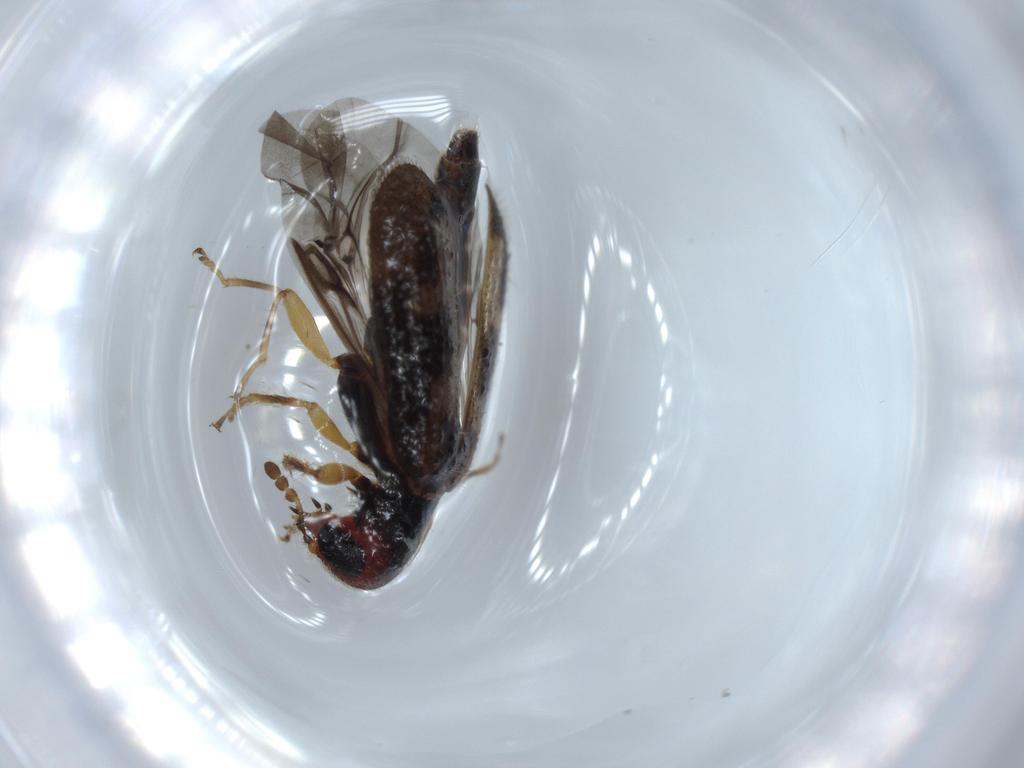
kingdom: Animalia
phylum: Arthropoda
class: Insecta
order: Coleoptera
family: Cleridae
